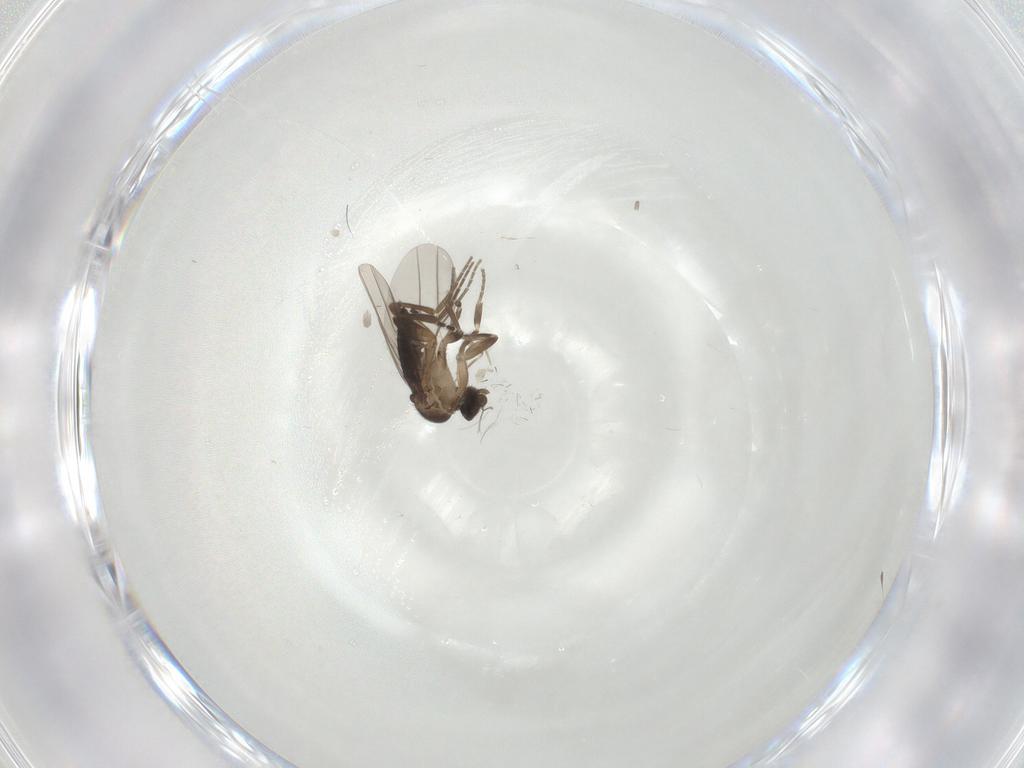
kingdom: Animalia
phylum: Arthropoda
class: Insecta
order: Diptera
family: Phoridae
